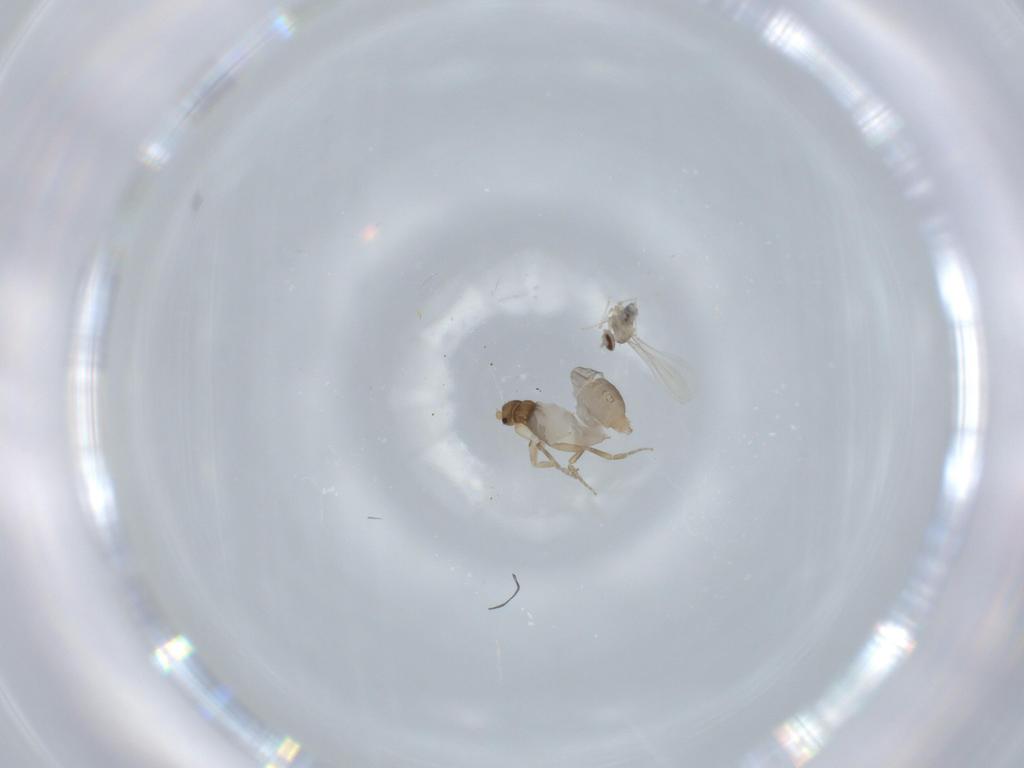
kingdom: Animalia
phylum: Arthropoda
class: Insecta
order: Diptera
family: Phoridae
